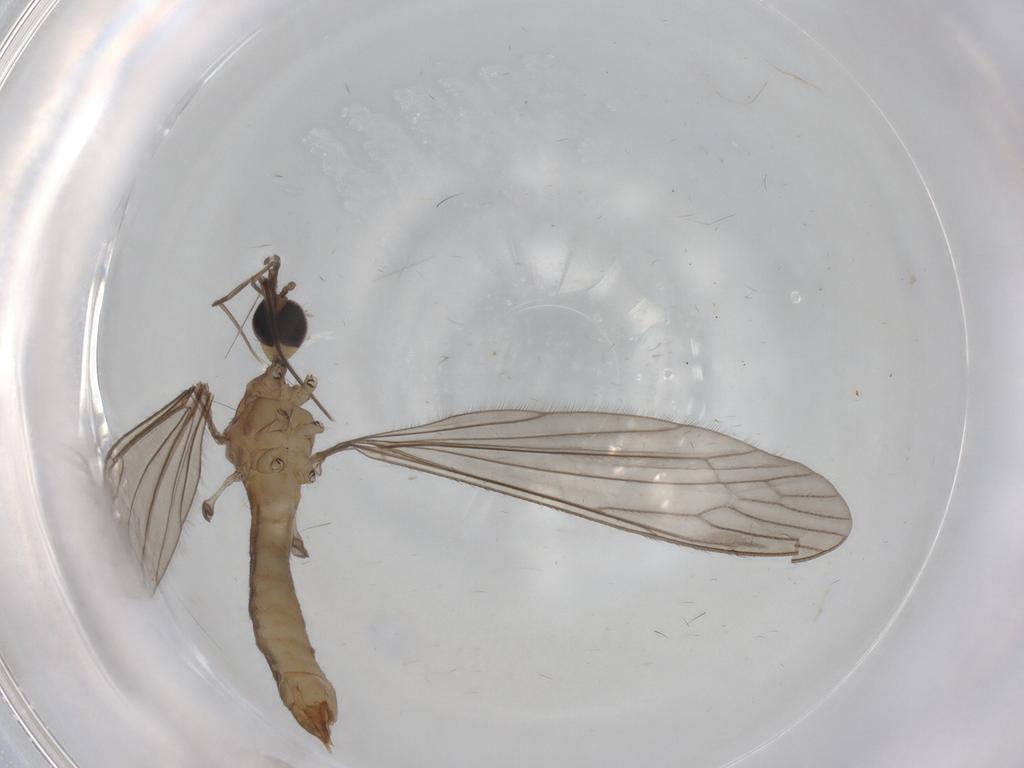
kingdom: Animalia
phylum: Arthropoda
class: Insecta
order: Diptera
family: Limoniidae
